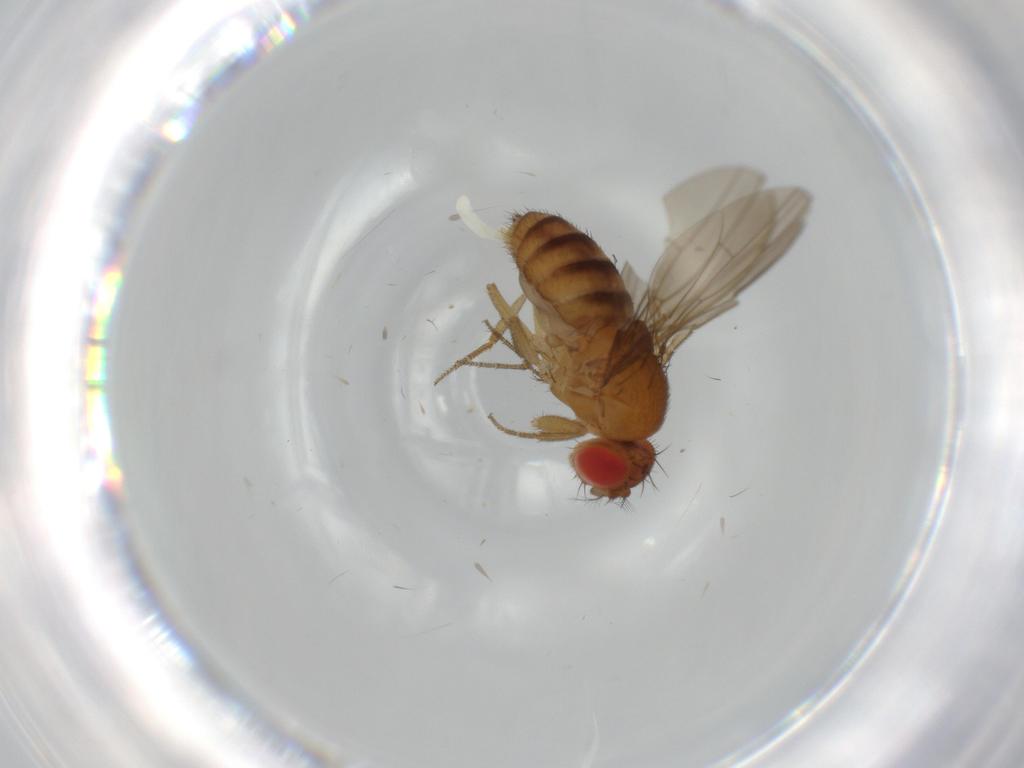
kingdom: Animalia
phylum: Arthropoda
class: Insecta
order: Diptera
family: Drosophilidae
